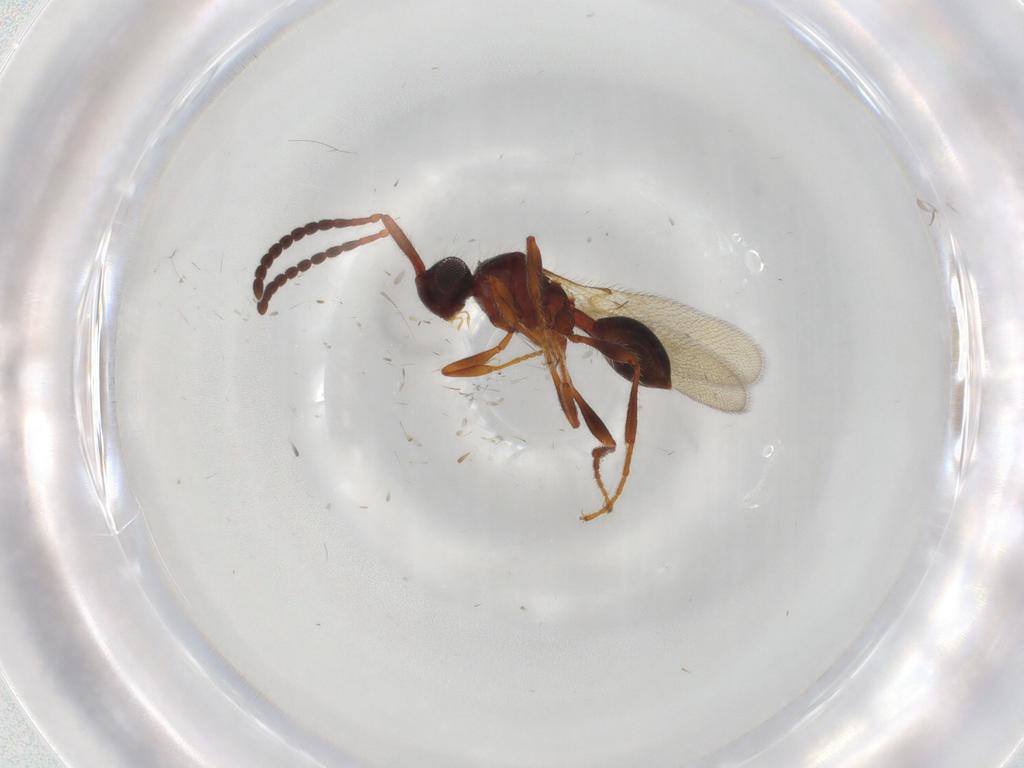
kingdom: Animalia
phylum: Arthropoda
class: Insecta
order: Hymenoptera
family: Diapriidae
